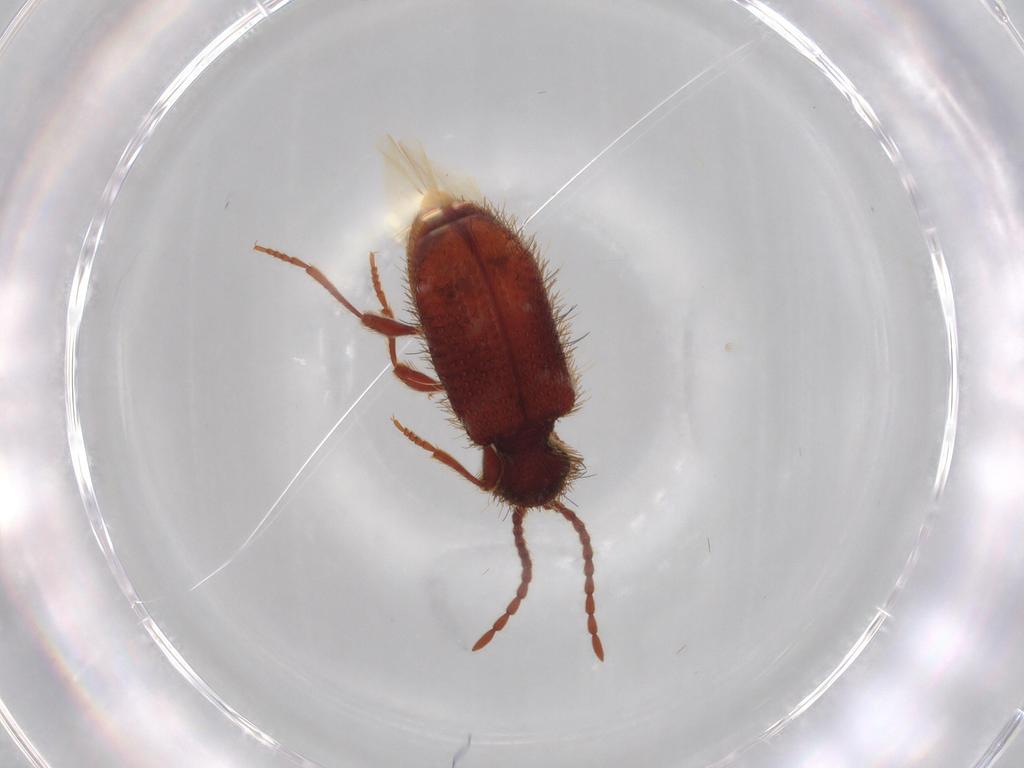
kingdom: Animalia
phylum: Arthropoda
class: Insecta
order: Coleoptera
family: Ptinidae
